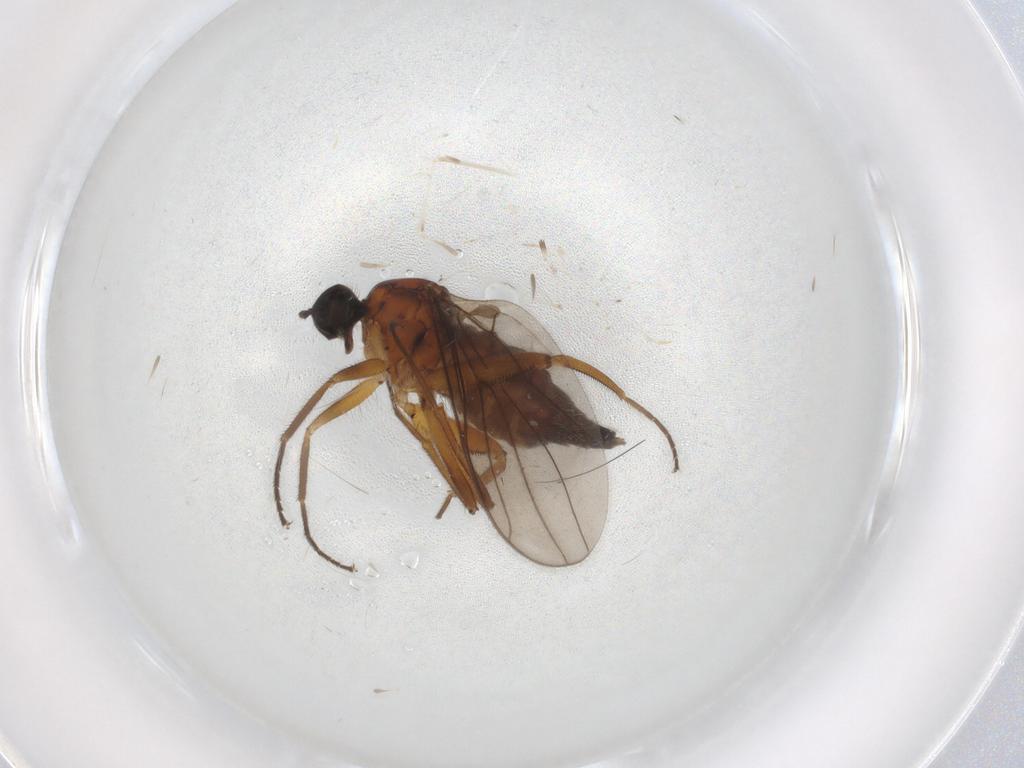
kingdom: Animalia
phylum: Arthropoda
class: Insecta
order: Diptera
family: Hybotidae
